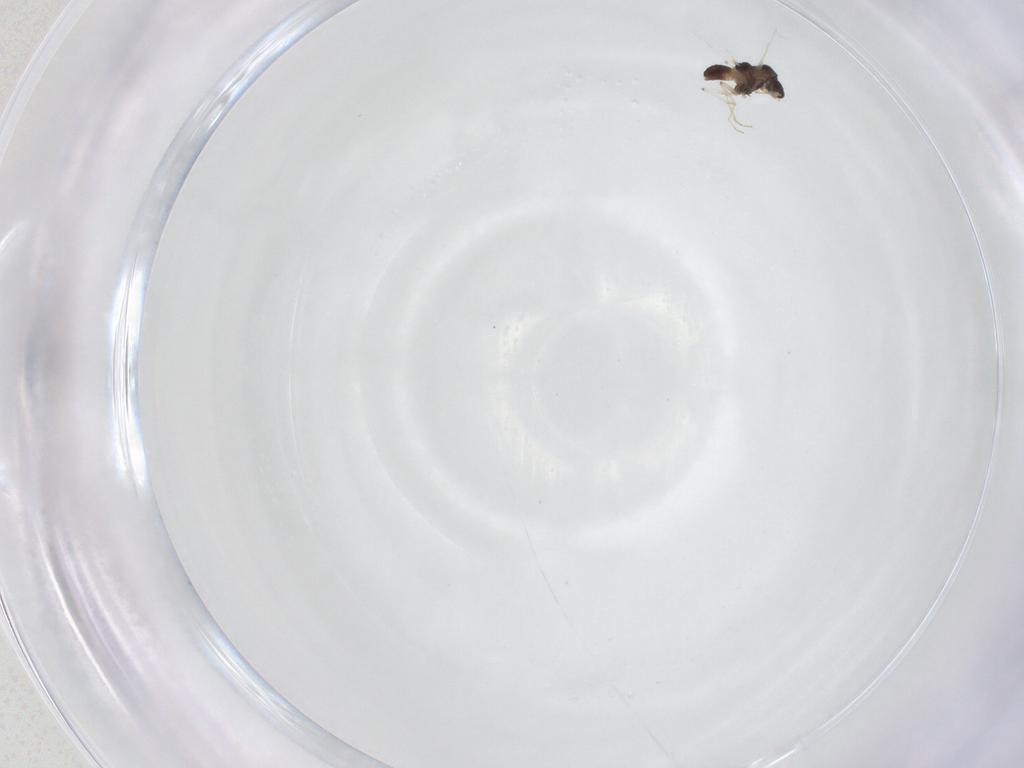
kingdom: Animalia
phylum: Arthropoda
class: Insecta
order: Diptera
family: Chironomidae
